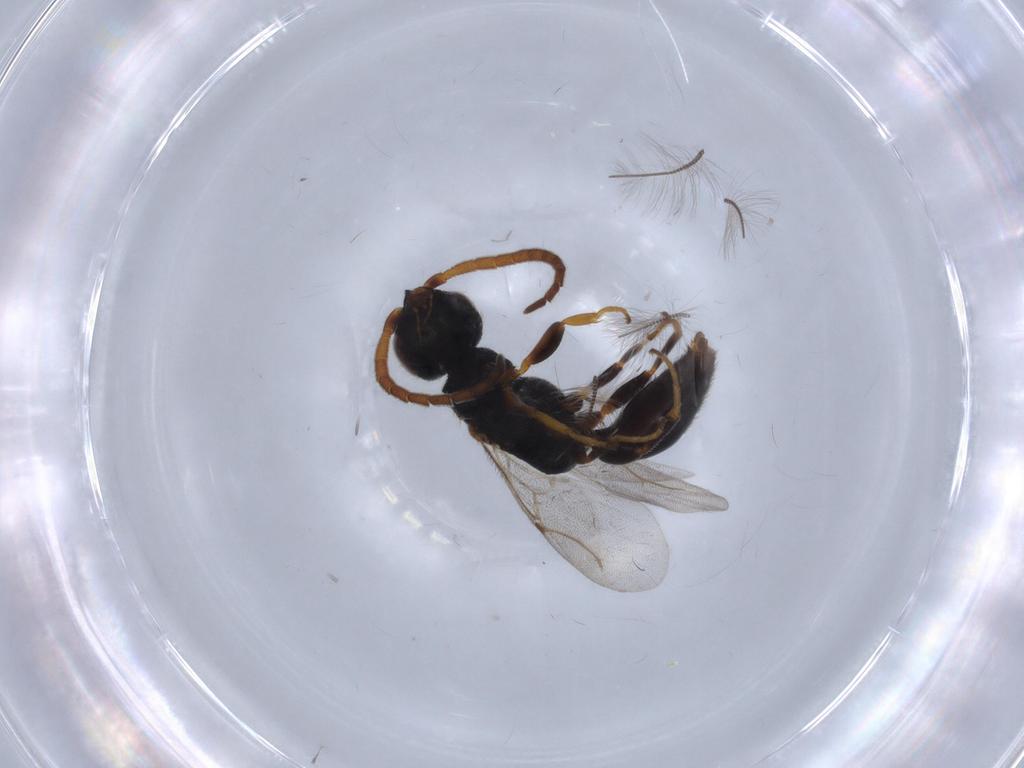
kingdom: Animalia
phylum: Arthropoda
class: Insecta
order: Hymenoptera
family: Bethylidae
